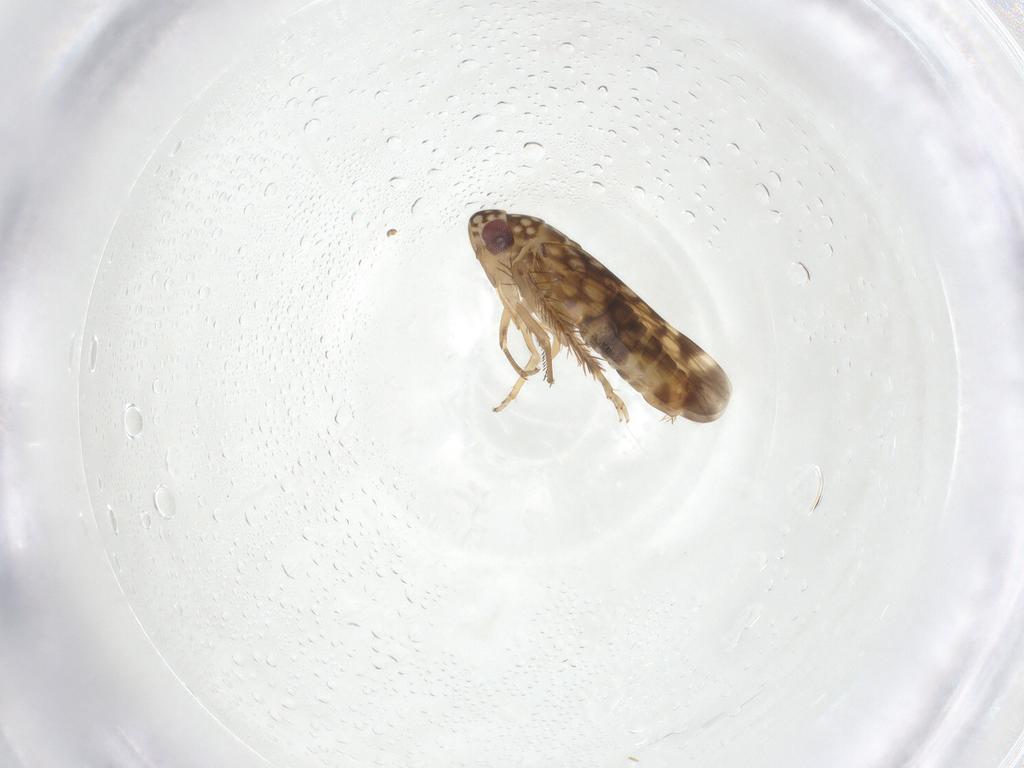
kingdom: Animalia
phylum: Arthropoda
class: Insecta
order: Hemiptera
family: Cicadellidae
